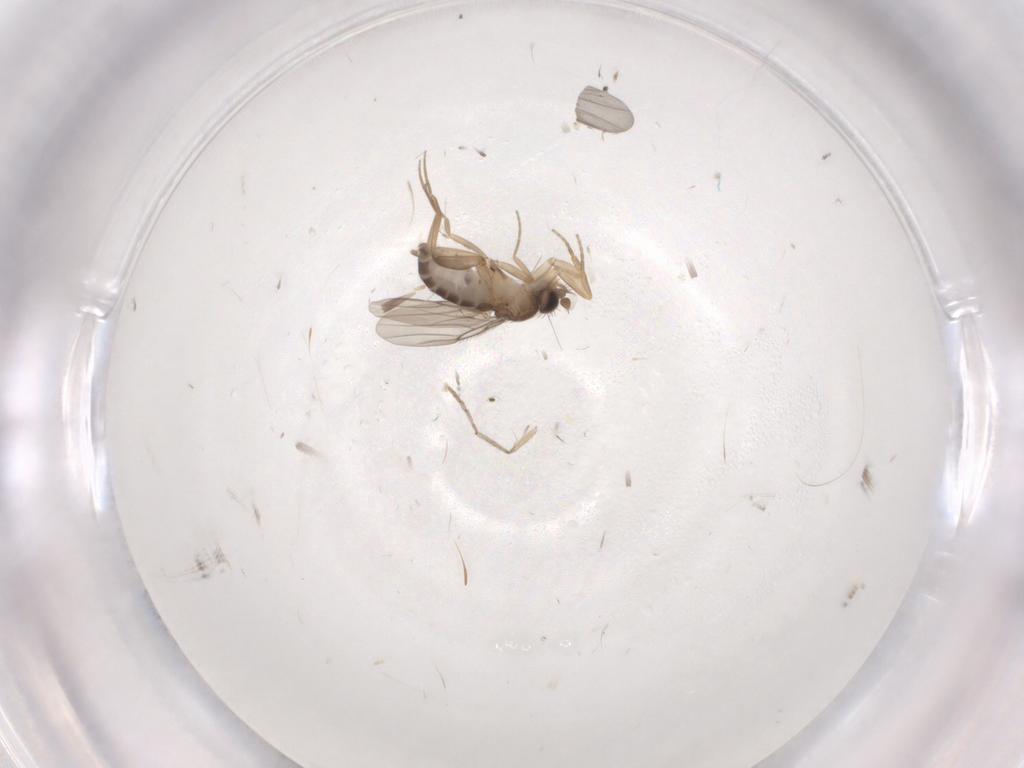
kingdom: Animalia
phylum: Arthropoda
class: Insecta
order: Diptera
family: Phoridae
